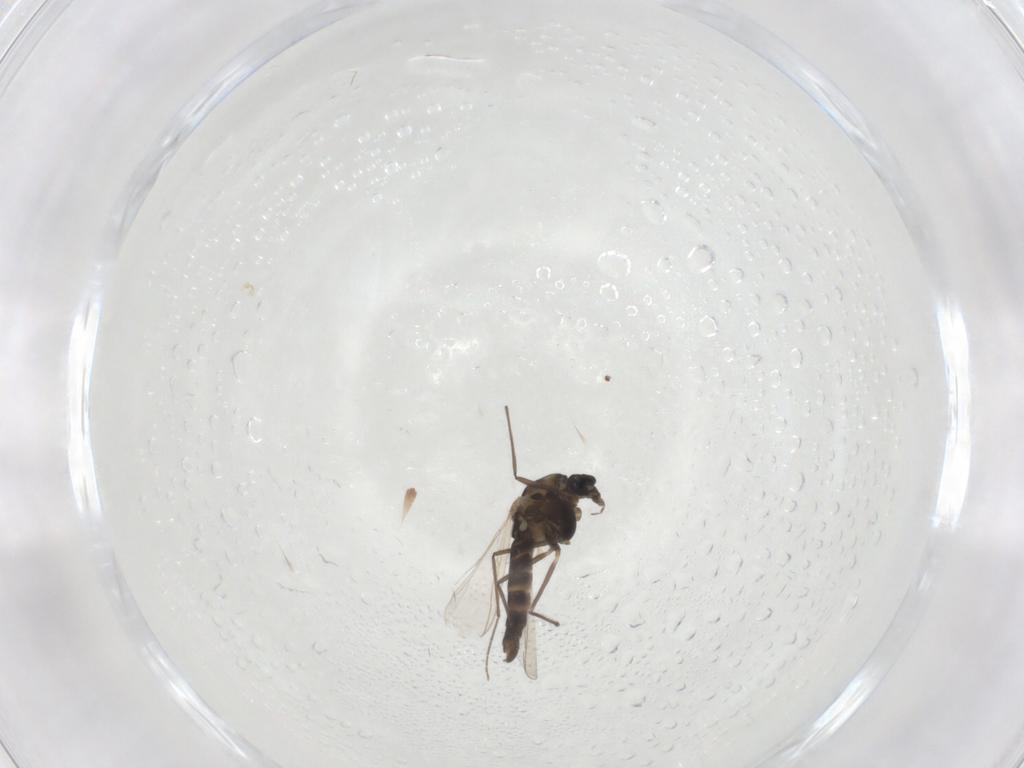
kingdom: Animalia
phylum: Arthropoda
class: Insecta
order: Diptera
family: Chironomidae
